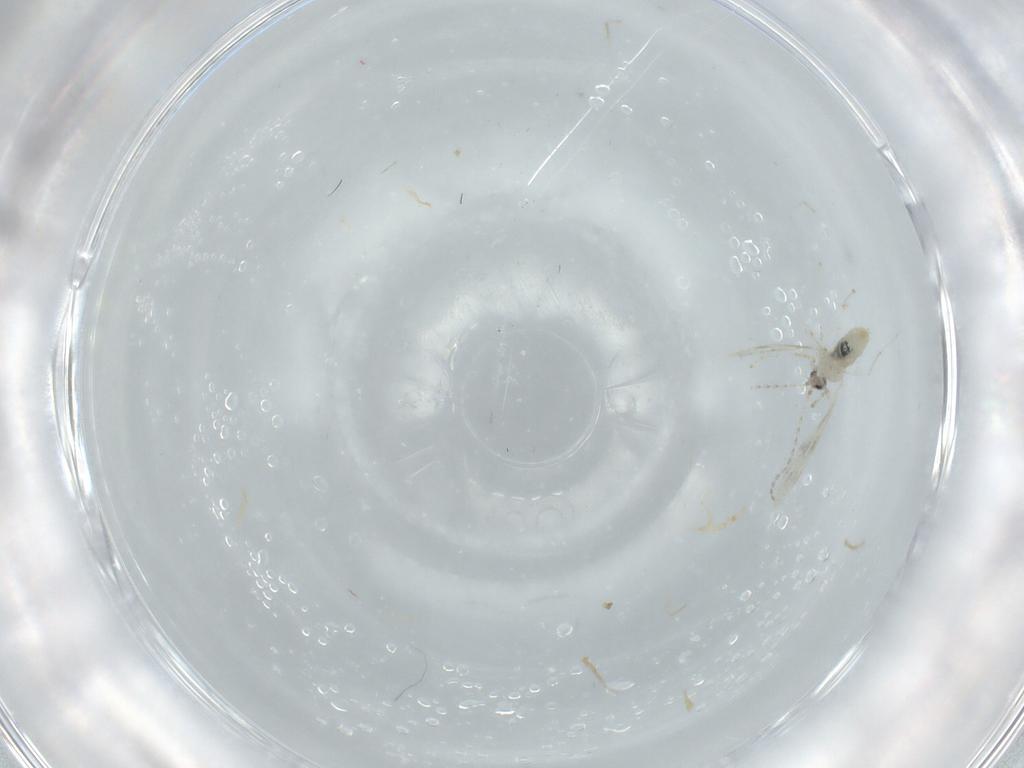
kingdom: Animalia
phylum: Arthropoda
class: Insecta
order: Diptera
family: Cecidomyiidae
